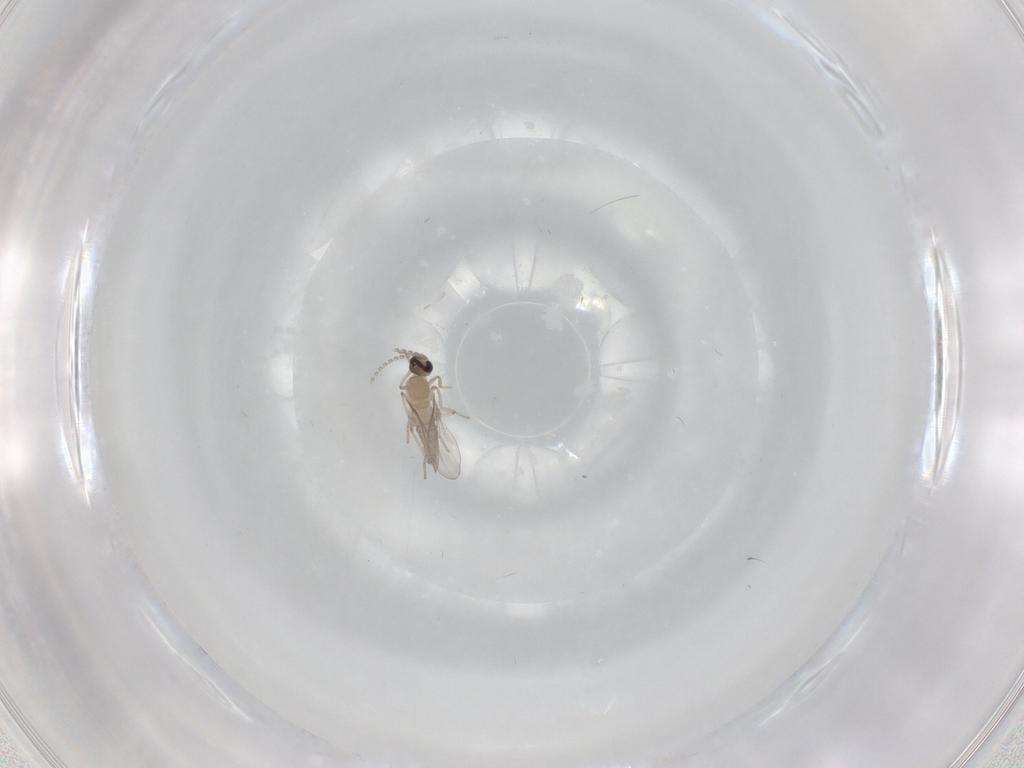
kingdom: Animalia
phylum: Arthropoda
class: Insecta
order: Diptera
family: Cecidomyiidae
